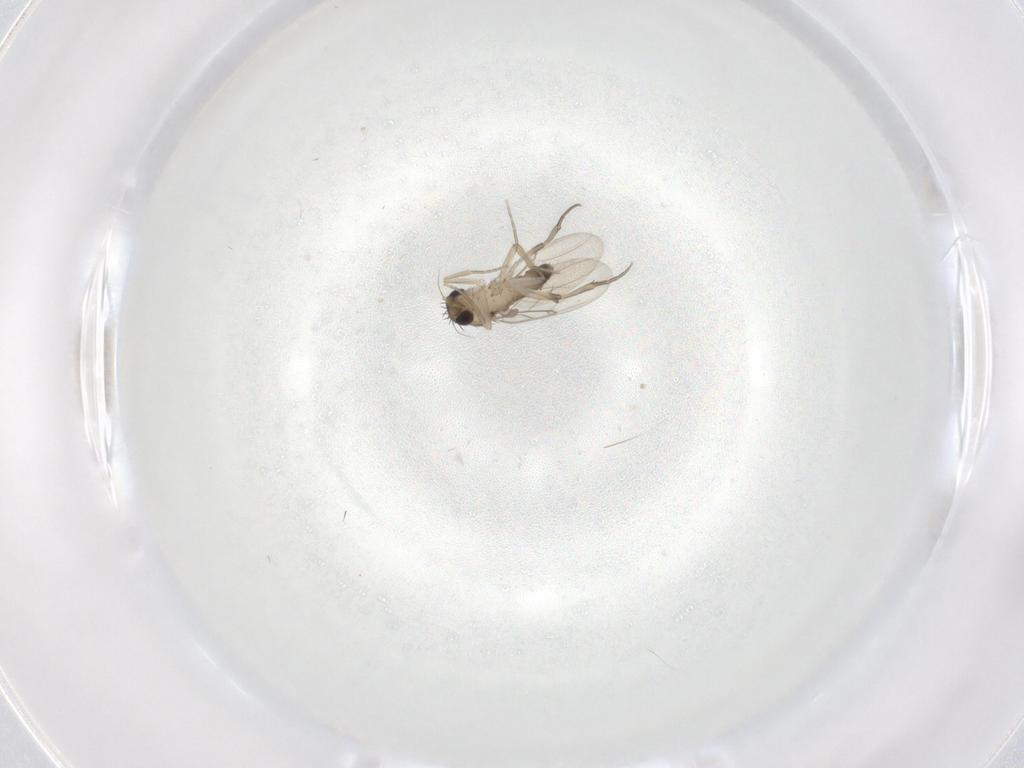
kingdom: Animalia
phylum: Arthropoda
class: Insecta
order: Diptera
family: Phoridae
